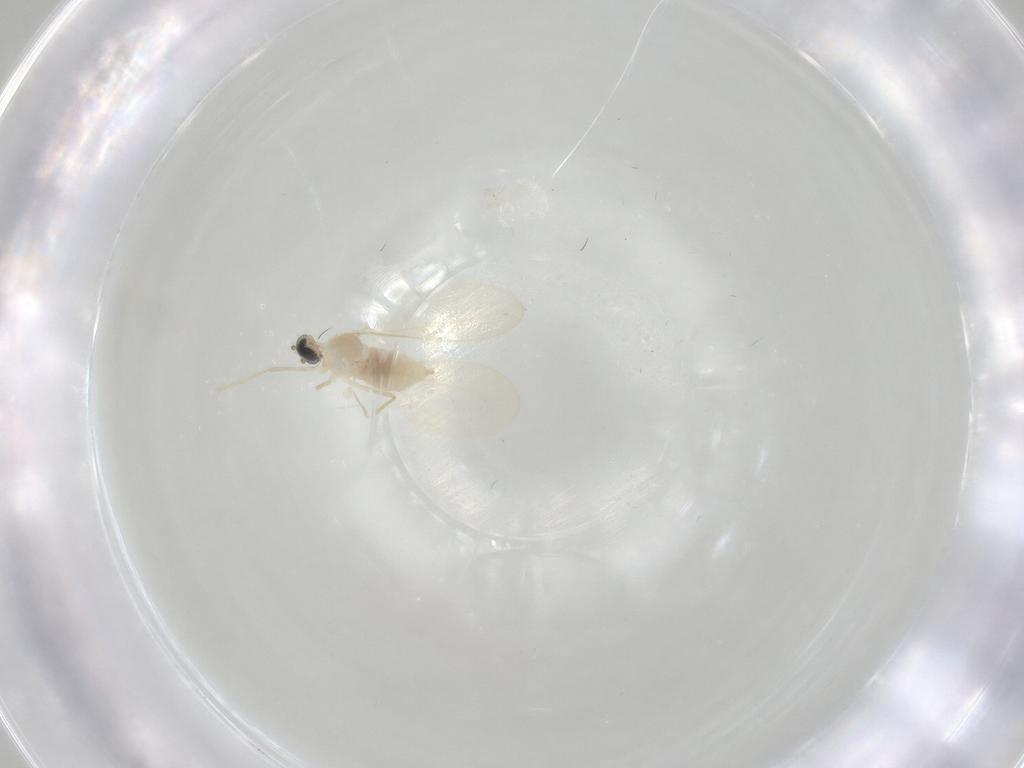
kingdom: Animalia
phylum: Arthropoda
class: Insecta
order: Diptera
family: Cecidomyiidae
